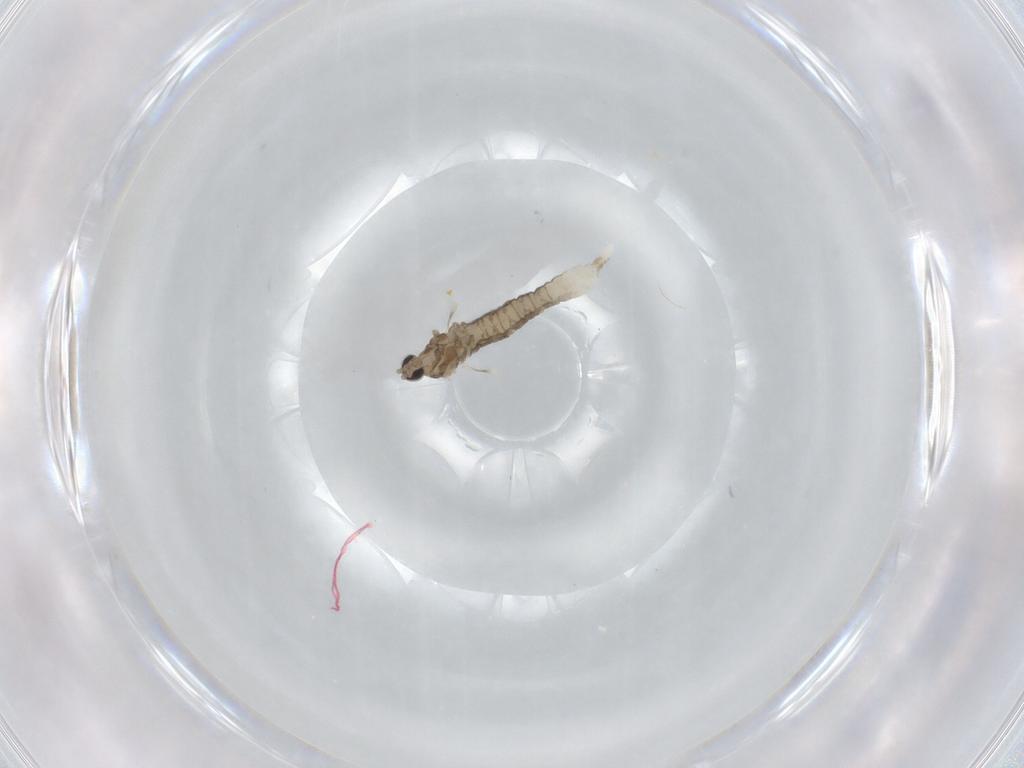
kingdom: Animalia
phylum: Arthropoda
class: Insecta
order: Diptera
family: Cecidomyiidae
